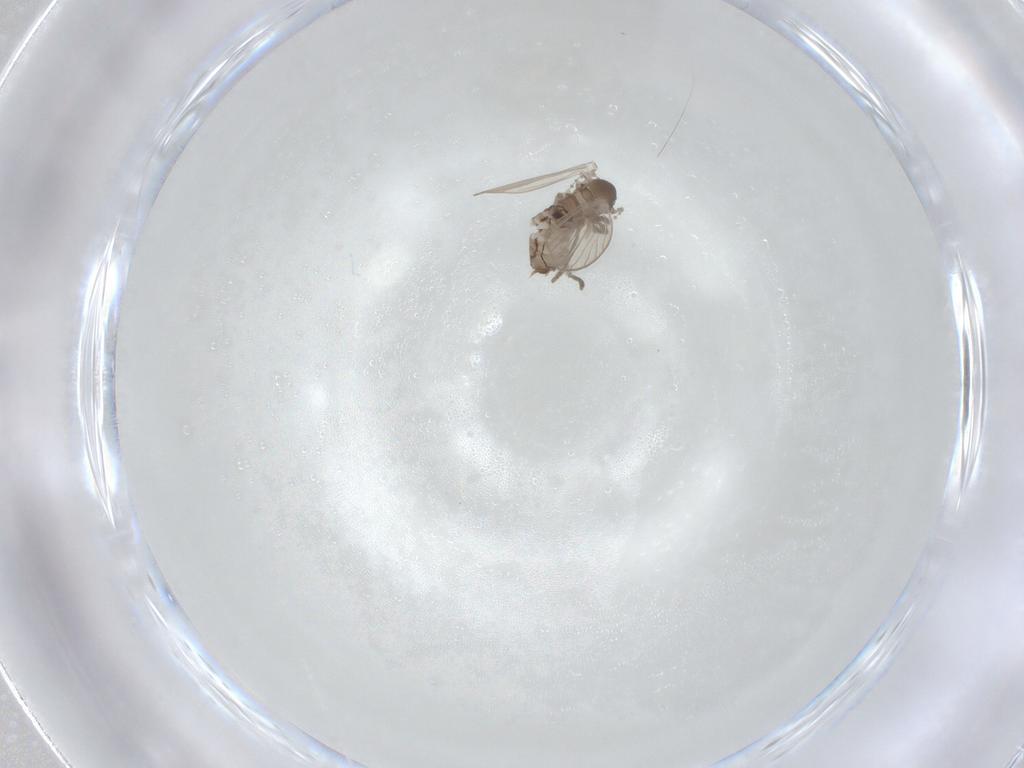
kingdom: Animalia
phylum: Arthropoda
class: Insecta
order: Diptera
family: Psychodidae
